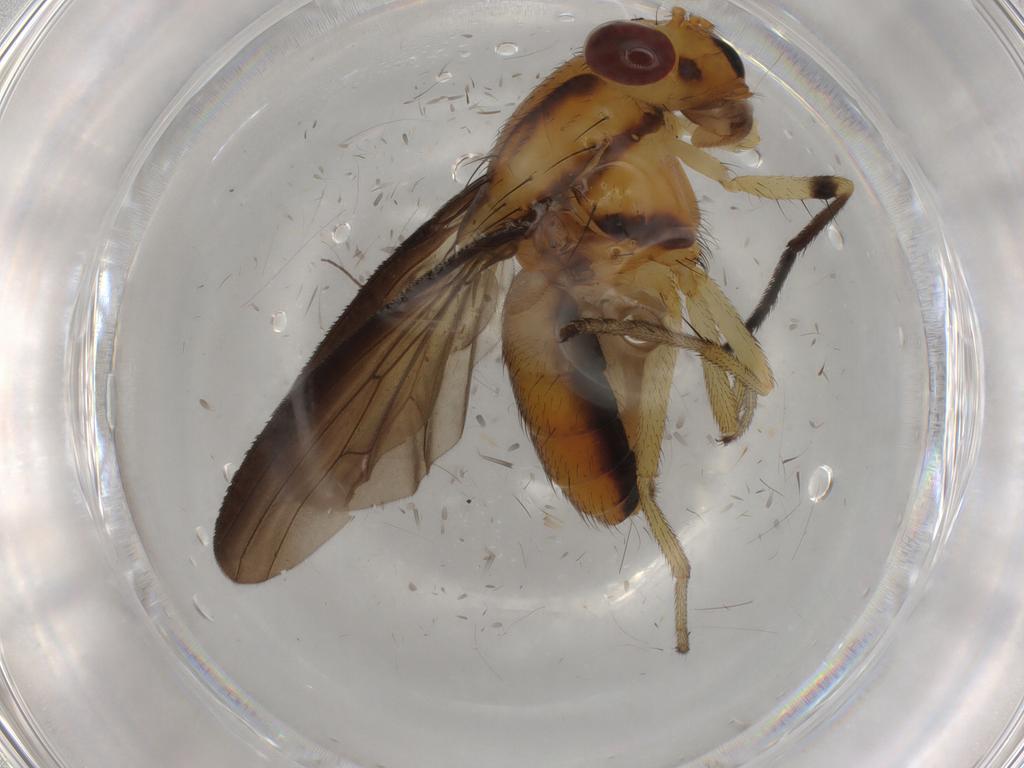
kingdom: Animalia
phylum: Arthropoda
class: Insecta
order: Diptera
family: Lauxaniidae
